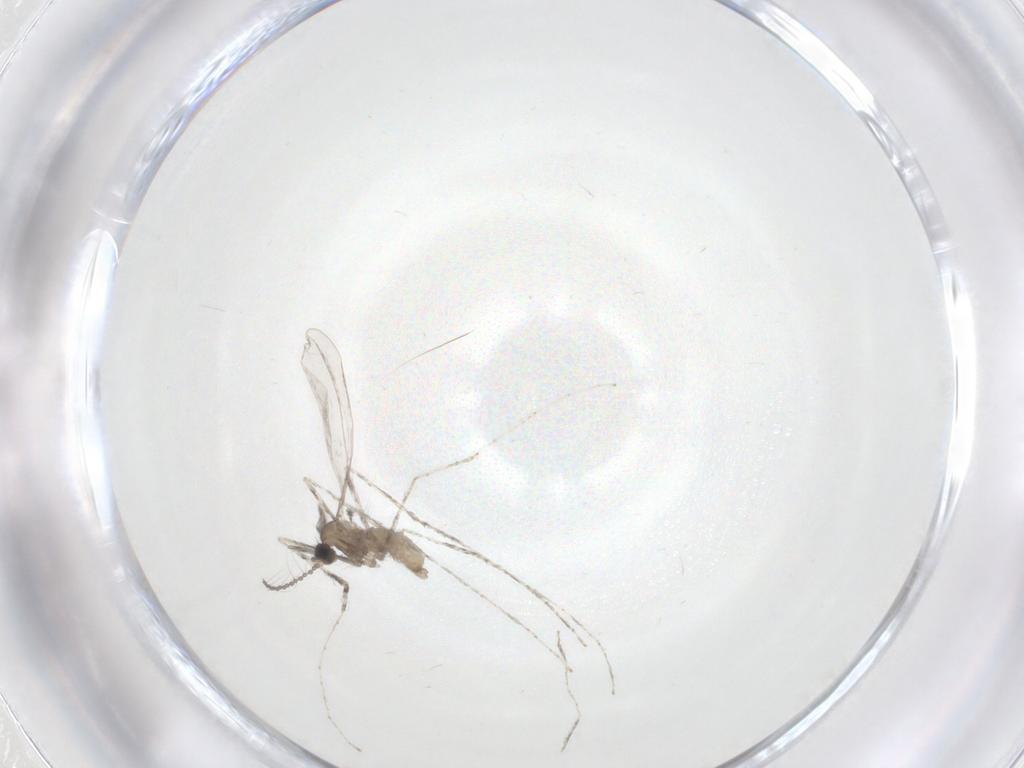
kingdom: Animalia
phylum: Arthropoda
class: Insecta
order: Diptera
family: Cecidomyiidae
